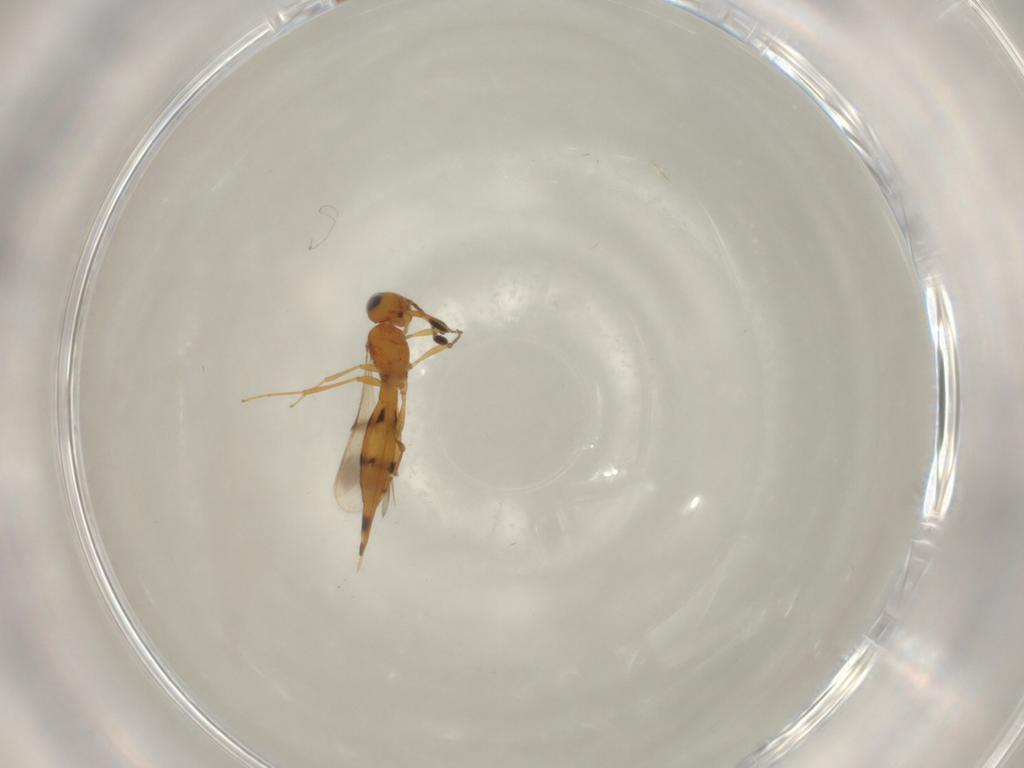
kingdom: Animalia
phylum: Arthropoda
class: Insecta
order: Hymenoptera
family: Scelionidae
